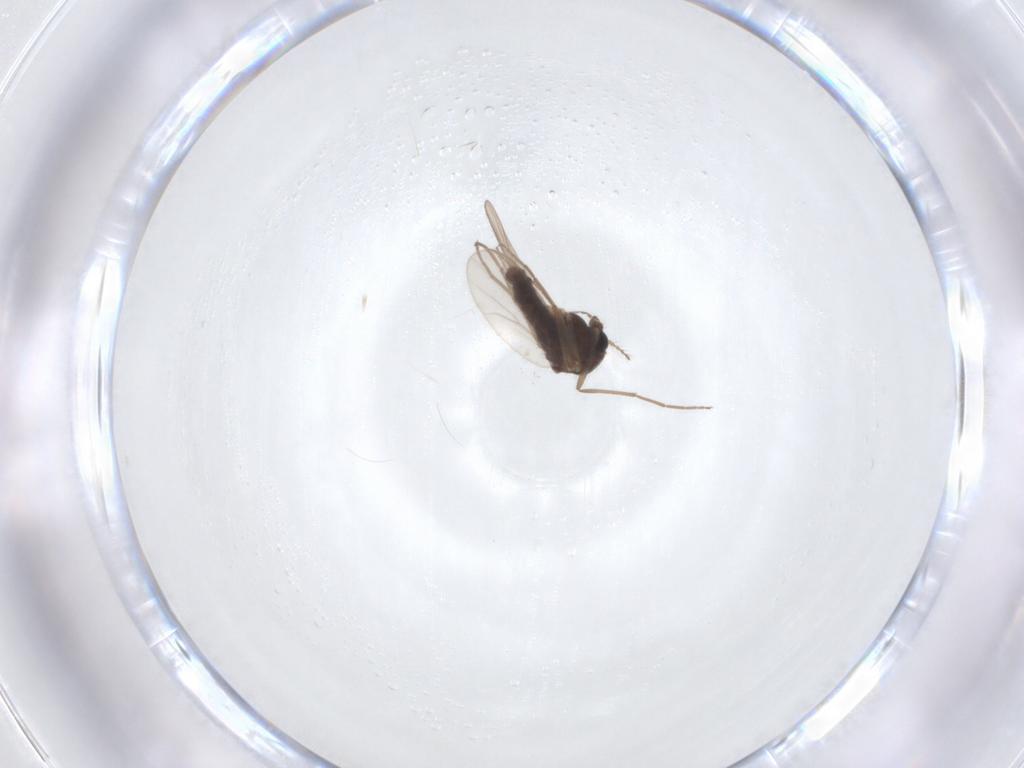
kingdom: Animalia
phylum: Arthropoda
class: Insecta
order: Diptera
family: Chironomidae
